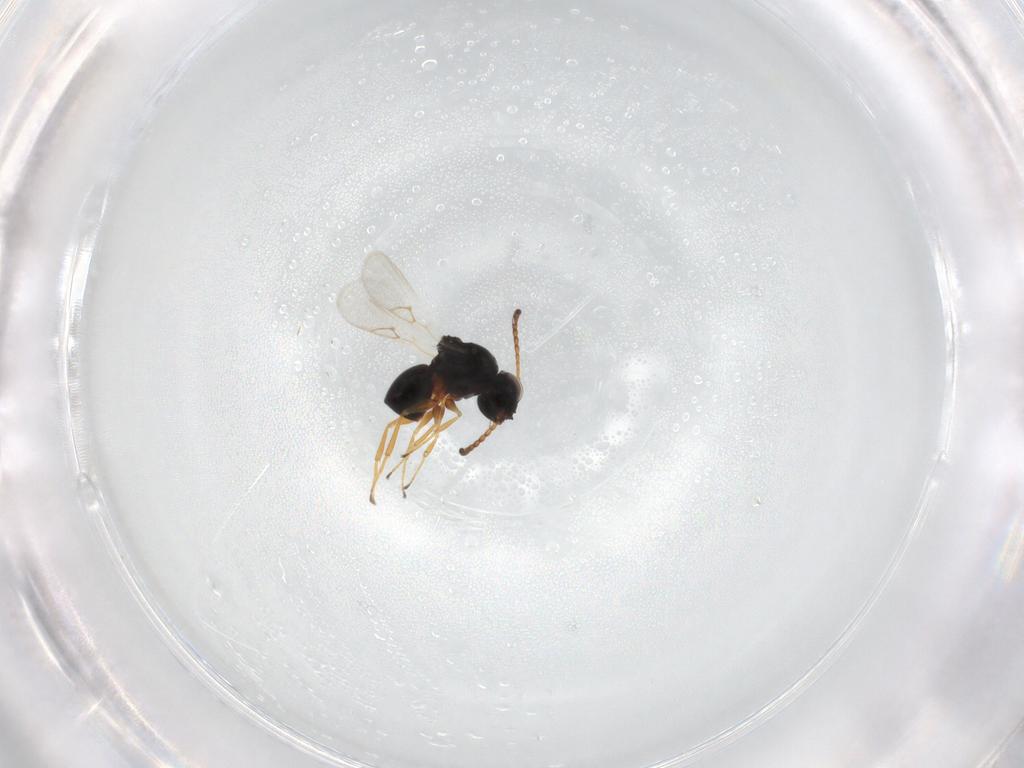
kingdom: Animalia
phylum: Arthropoda
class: Insecta
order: Hymenoptera
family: Figitidae
